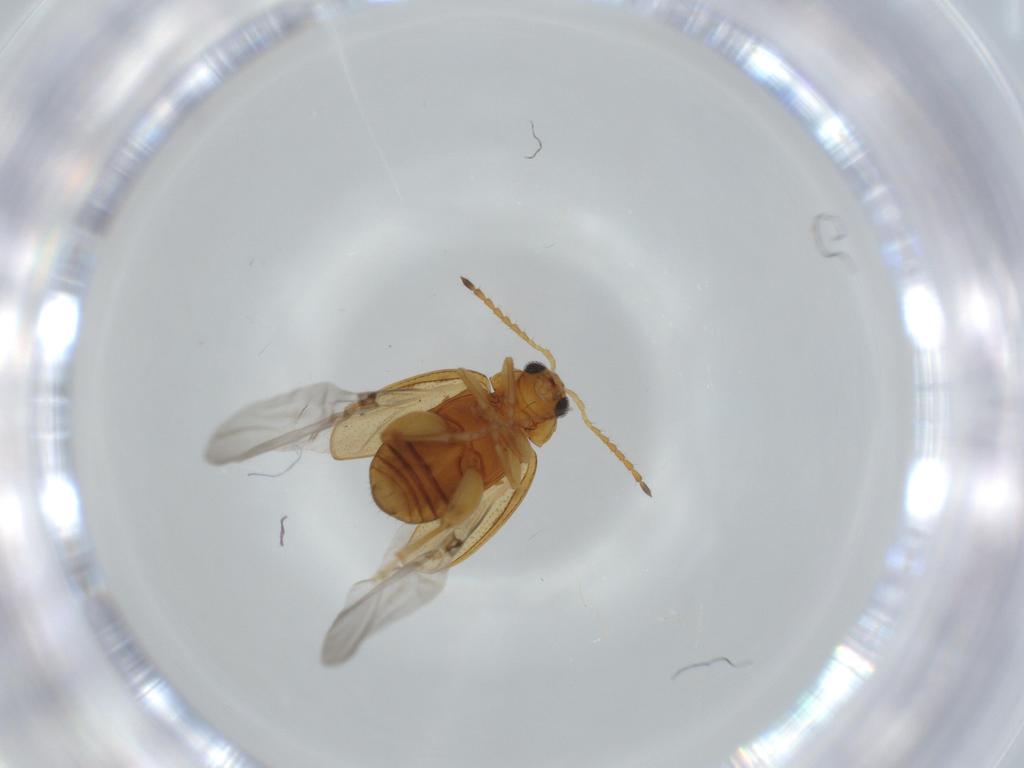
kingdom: Animalia
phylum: Arthropoda
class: Insecta
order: Coleoptera
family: Chrysomelidae
